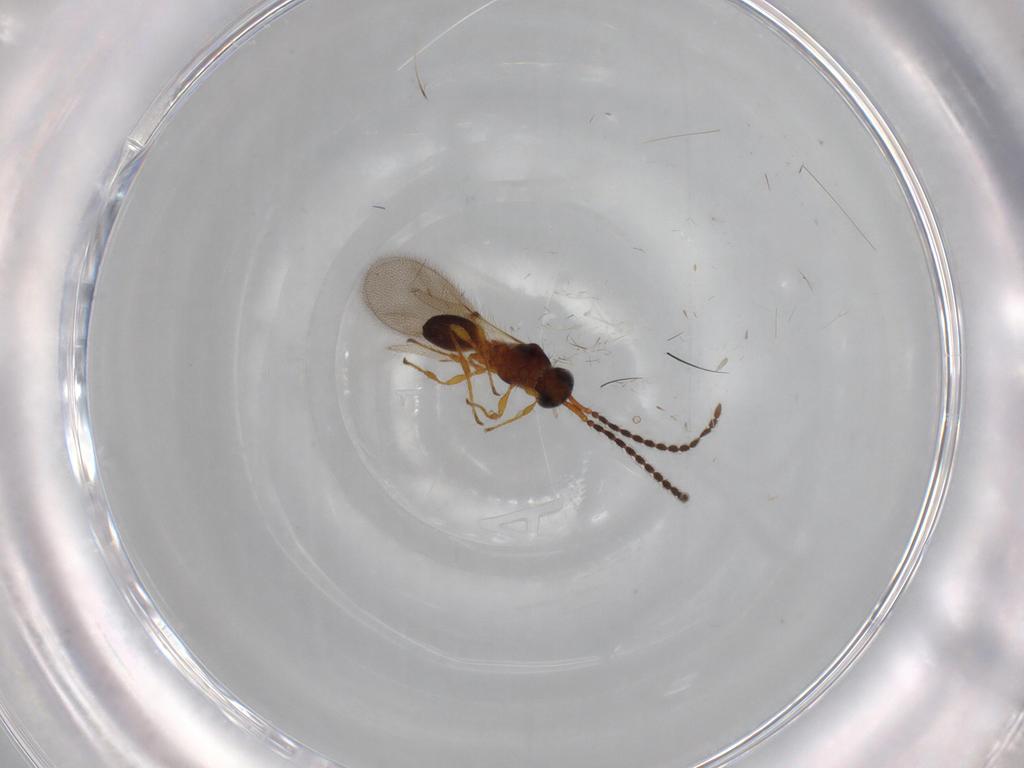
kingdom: Animalia
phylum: Arthropoda
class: Insecta
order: Hymenoptera
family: Diapriidae
